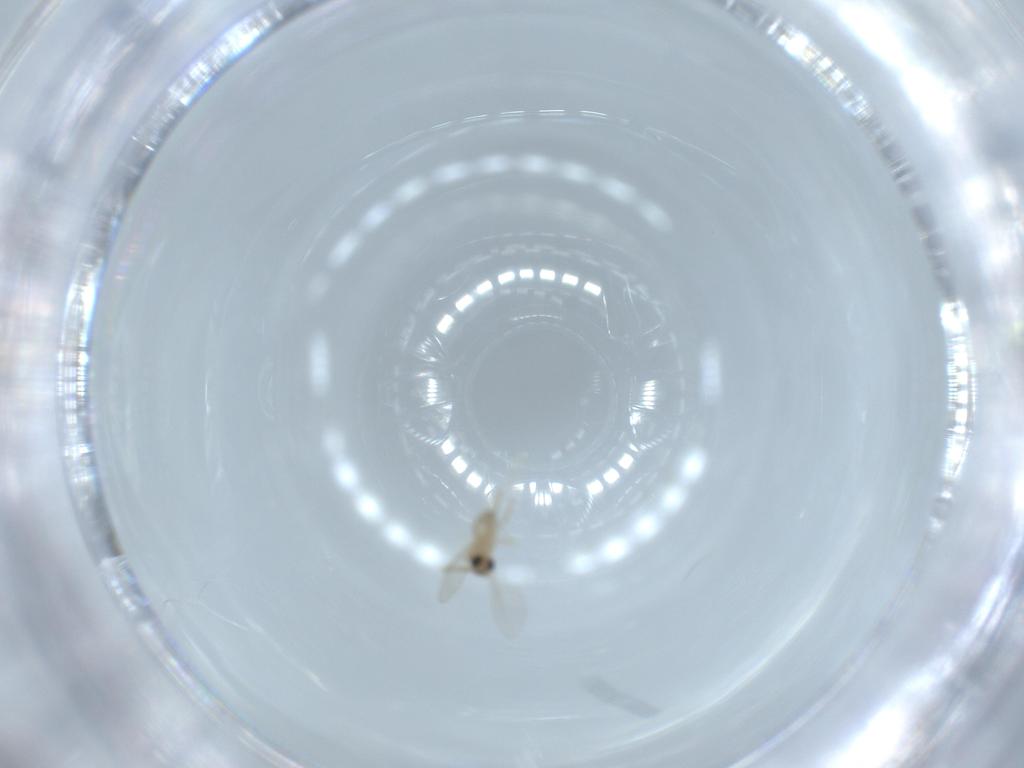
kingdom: Animalia
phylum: Arthropoda
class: Insecta
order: Diptera
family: Cecidomyiidae
